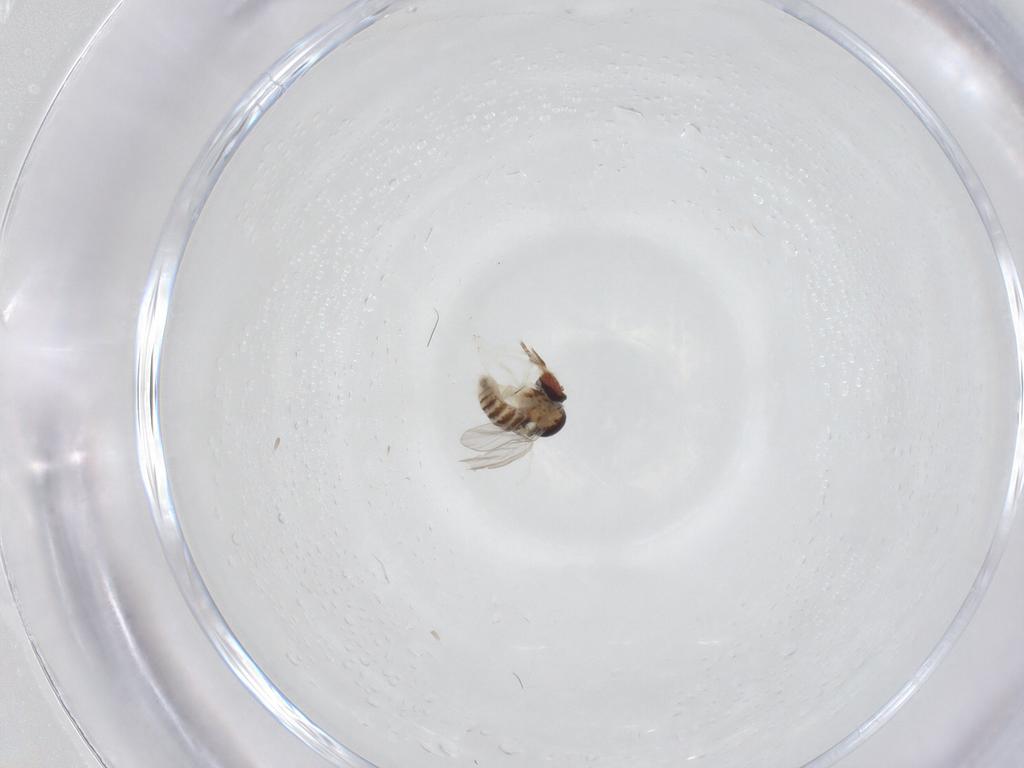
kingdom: Animalia
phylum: Arthropoda
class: Insecta
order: Diptera
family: Mythicomyiidae
